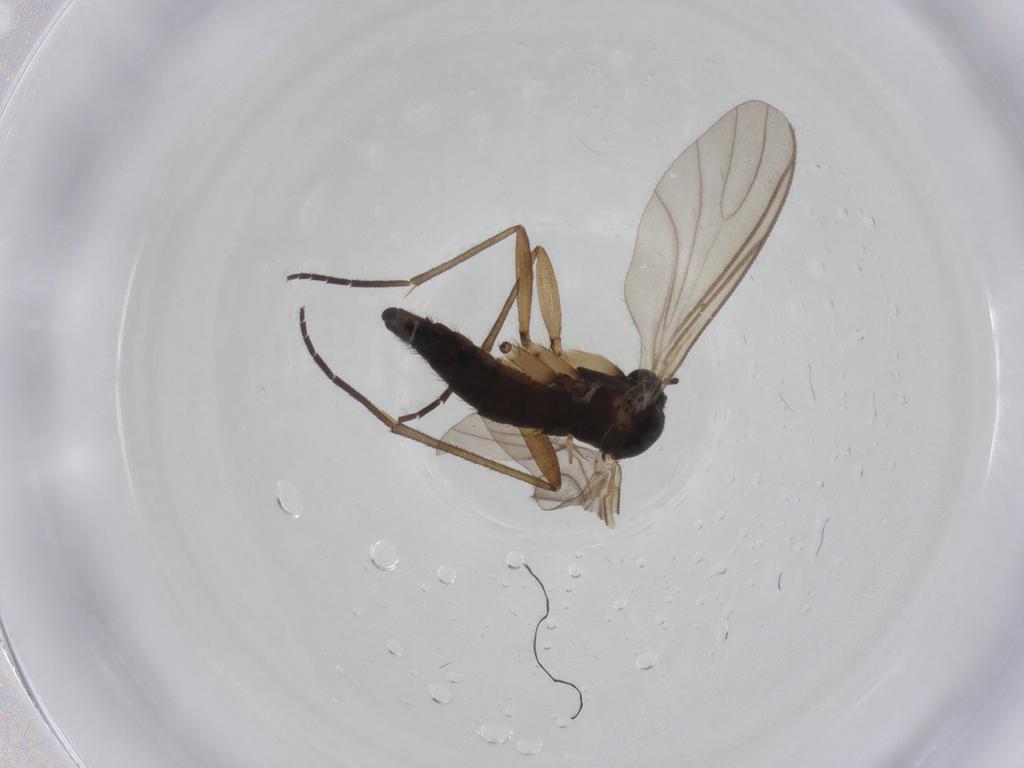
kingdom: Animalia
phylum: Arthropoda
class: Insecta
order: Diptera
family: Sciaridae
